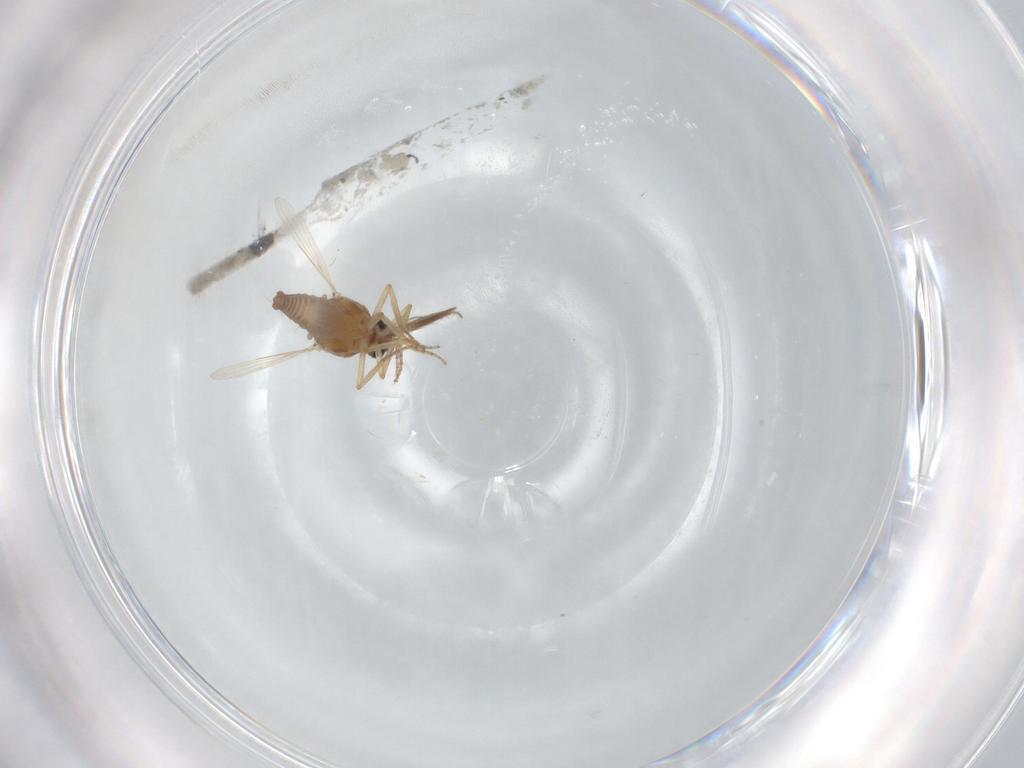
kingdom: Animalia
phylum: Arthropoda
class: Insecta
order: Diptera
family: Ceratopogonidae
